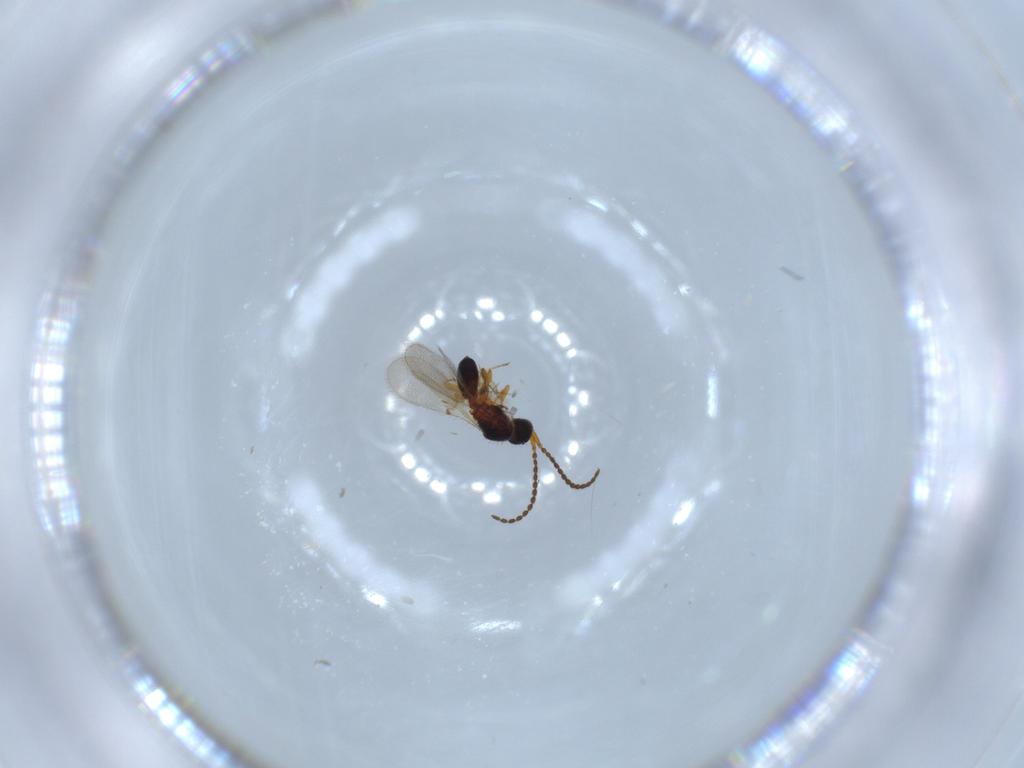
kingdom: Animalia
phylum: Arthropoda
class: Insecta
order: Hymenoptera
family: Diapriidae
